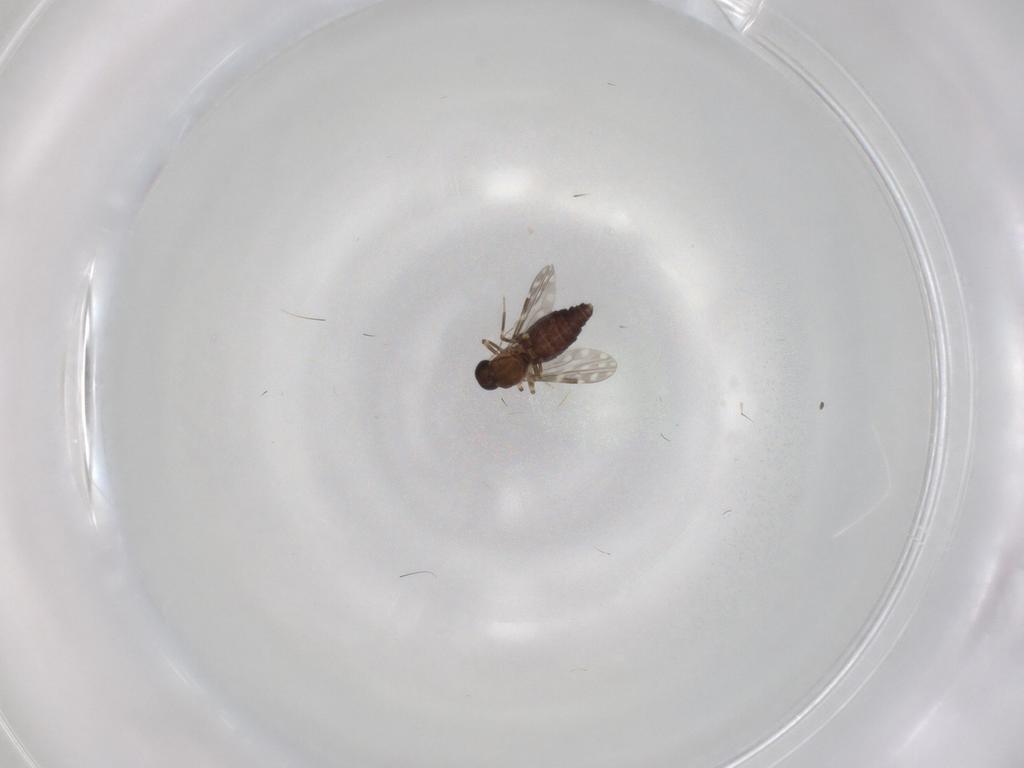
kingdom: Animalia
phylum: Arthropoda
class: Insecta
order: Diptera
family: Ceratopogonidae
